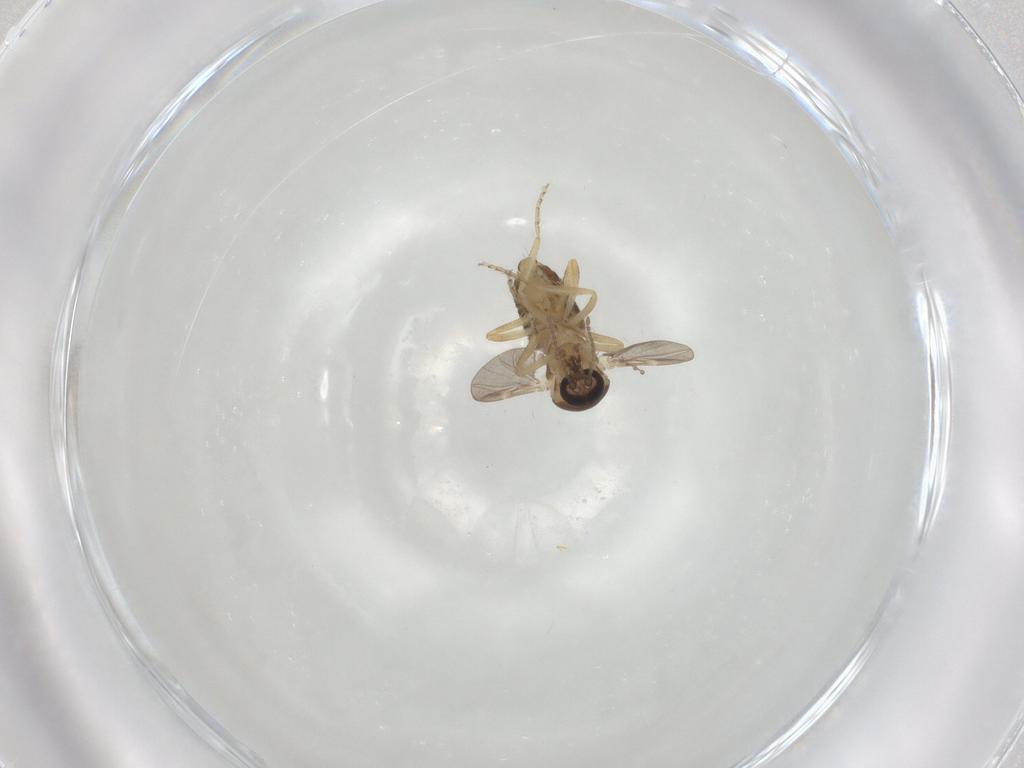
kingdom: Animalia
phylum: Arthropoda
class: Insecta
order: Diptera
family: Ceratopogonidae
